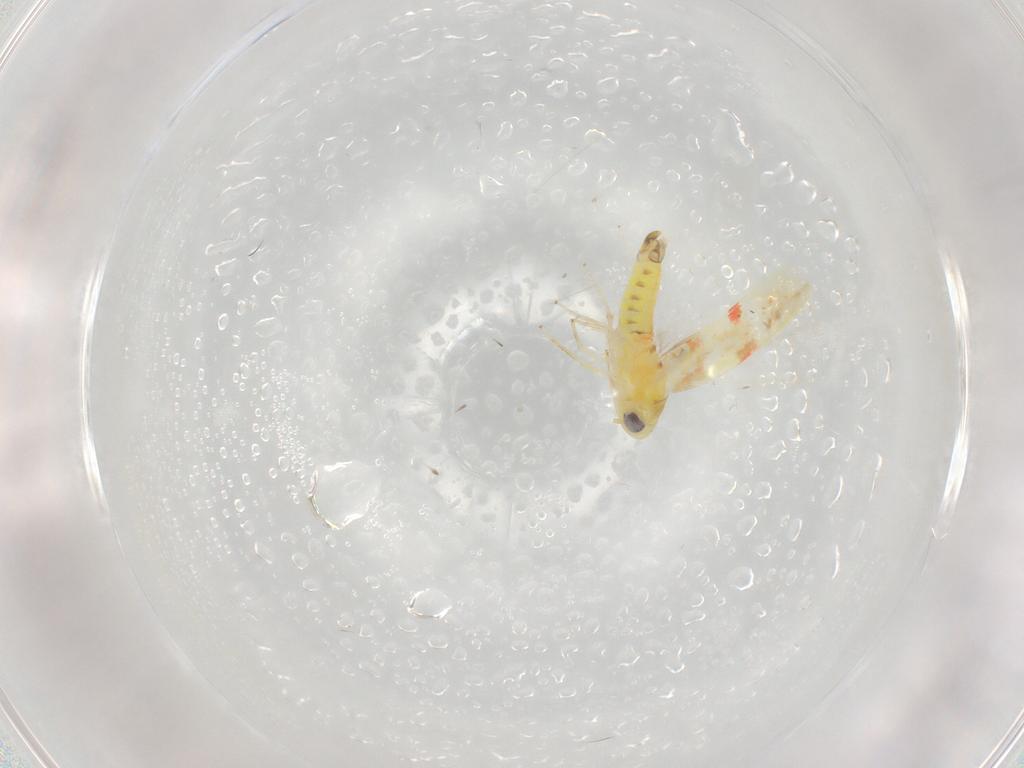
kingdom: Animalia
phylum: Arthropoda
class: Insecta
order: Hemiptera
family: Cicadellidae
